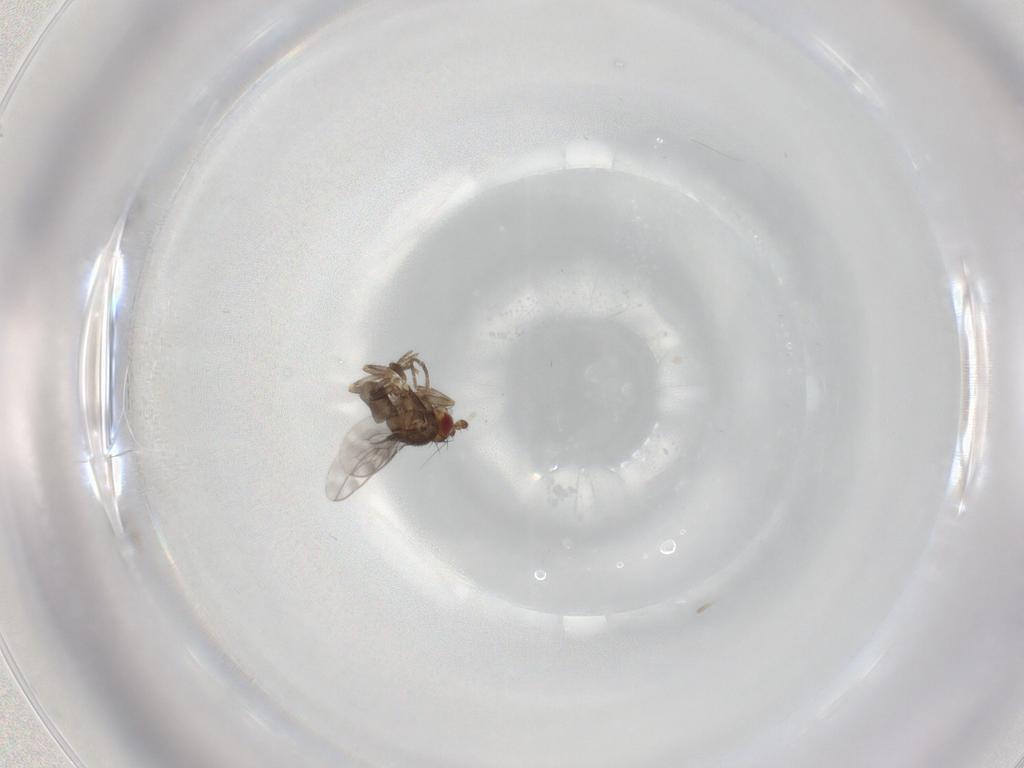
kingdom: Animalia
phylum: Arthropoda
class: Insecta
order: Diptera
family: Sphaeroceridae
